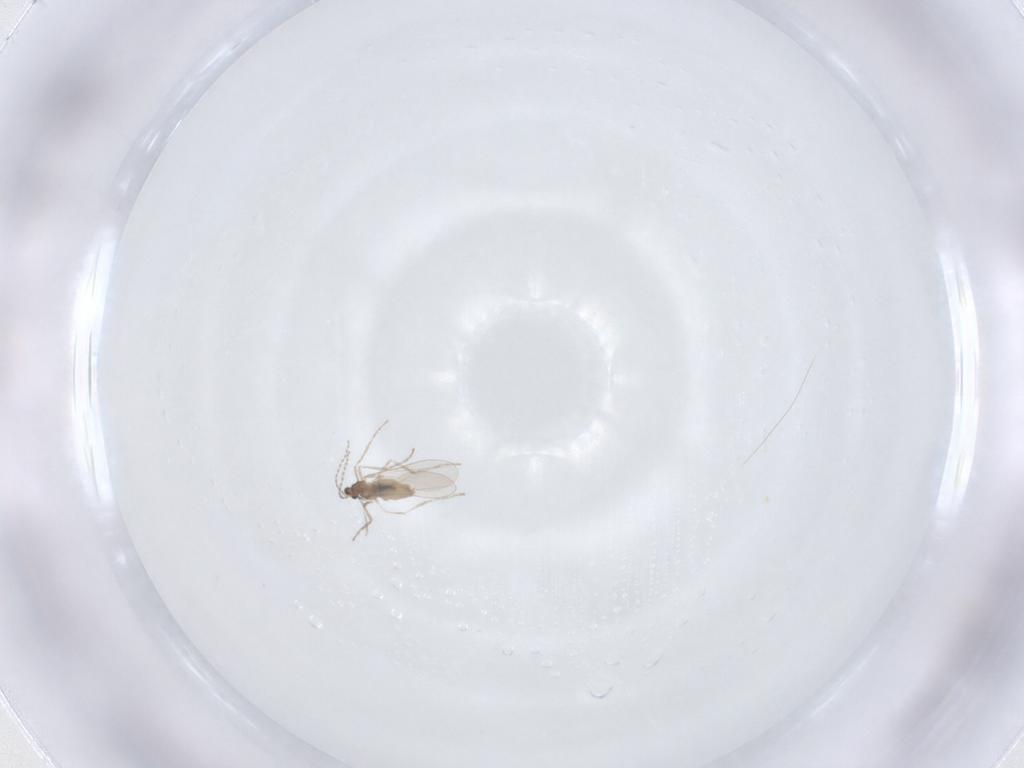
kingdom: Animalia
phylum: Arthropoda
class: Insecta
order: Diptera
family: Cecidomyiidae
